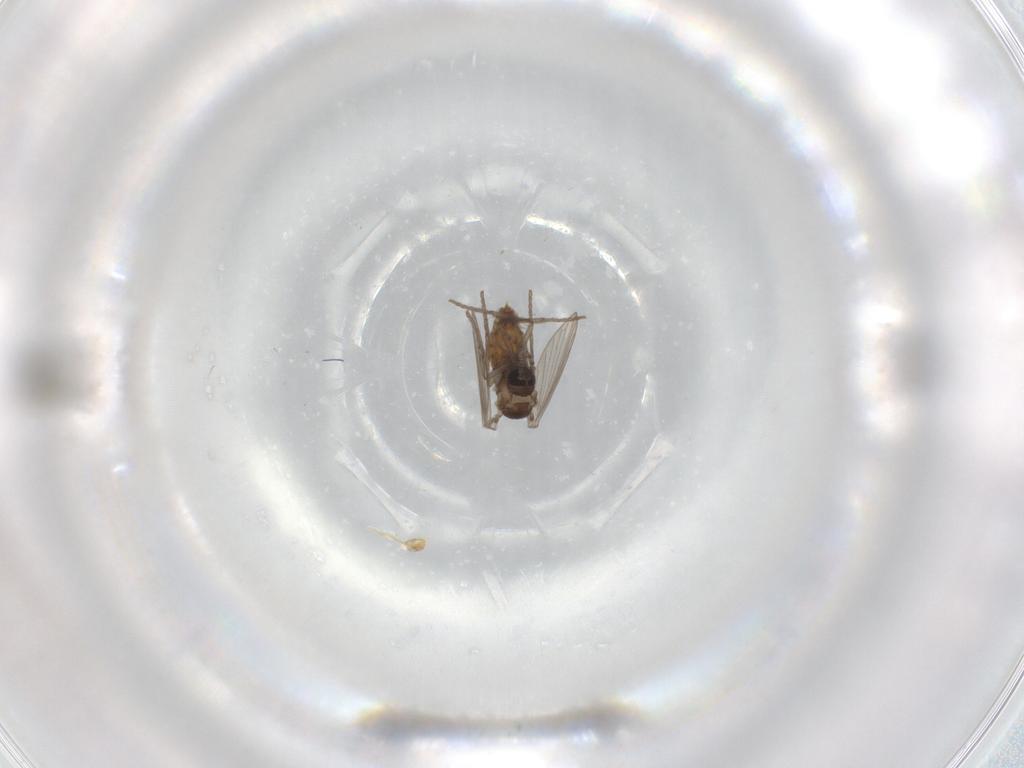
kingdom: Animalia
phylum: Arthropoda
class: Insecta
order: Diptera
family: Psychodidae
